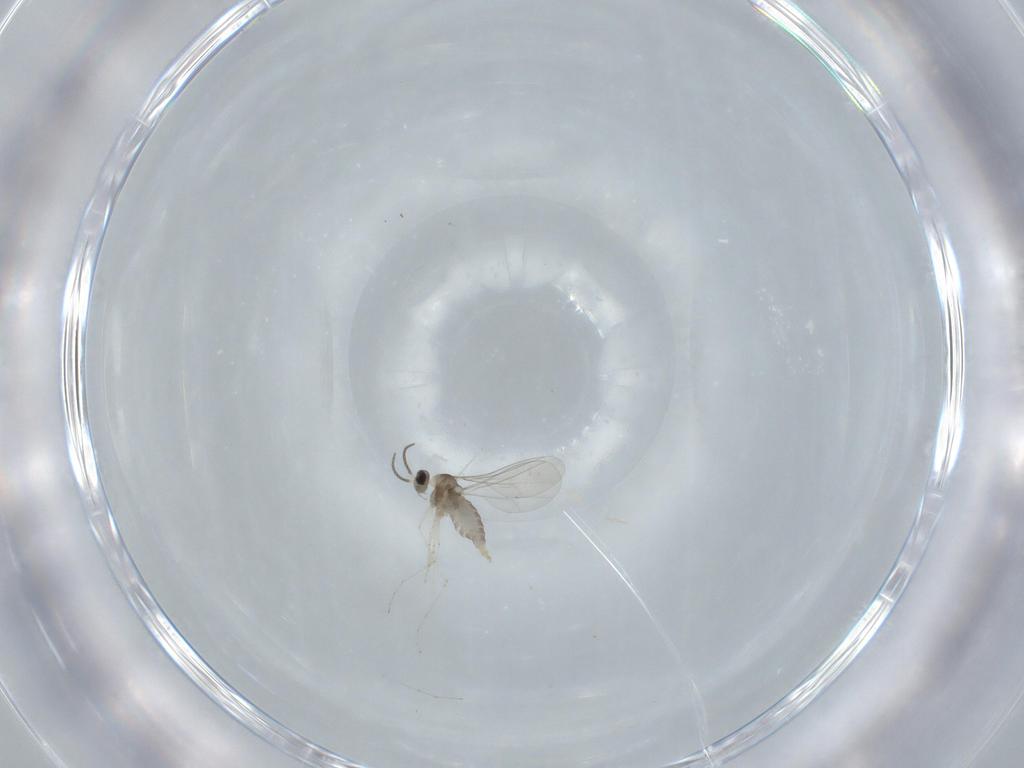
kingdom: Animalia
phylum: Arthropoda
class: Insecta
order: Diptera
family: Cecidomyiidae
